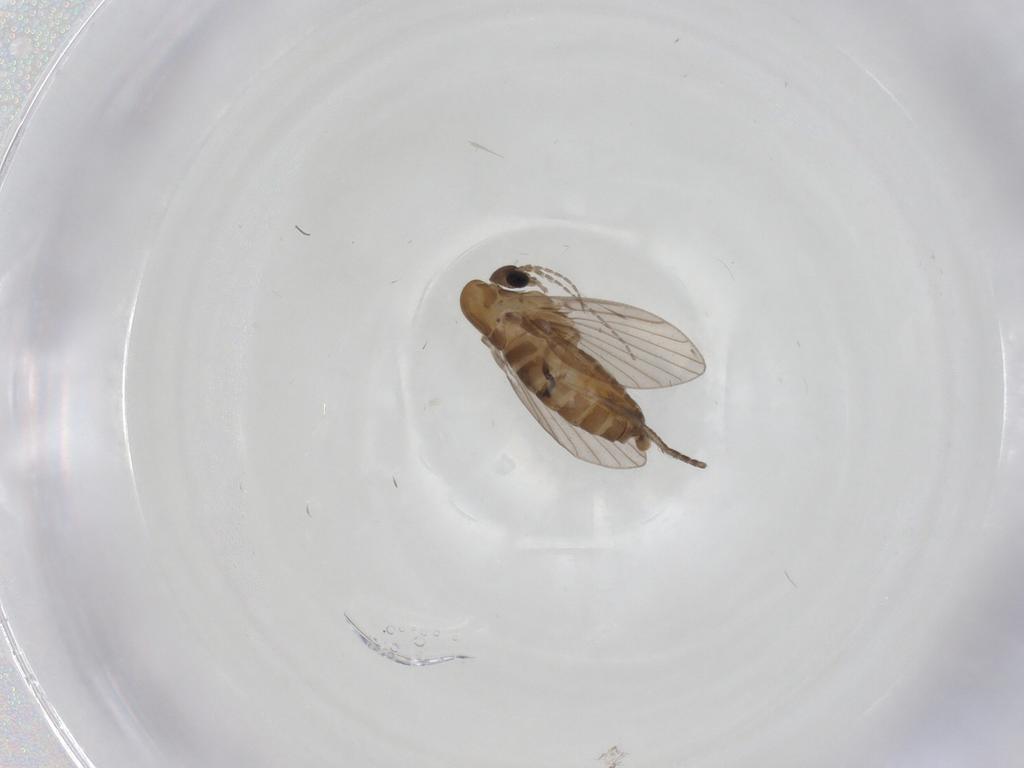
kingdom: Animalia
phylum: Arthropoda
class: Insecta
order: Diptera
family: Psychodidae
